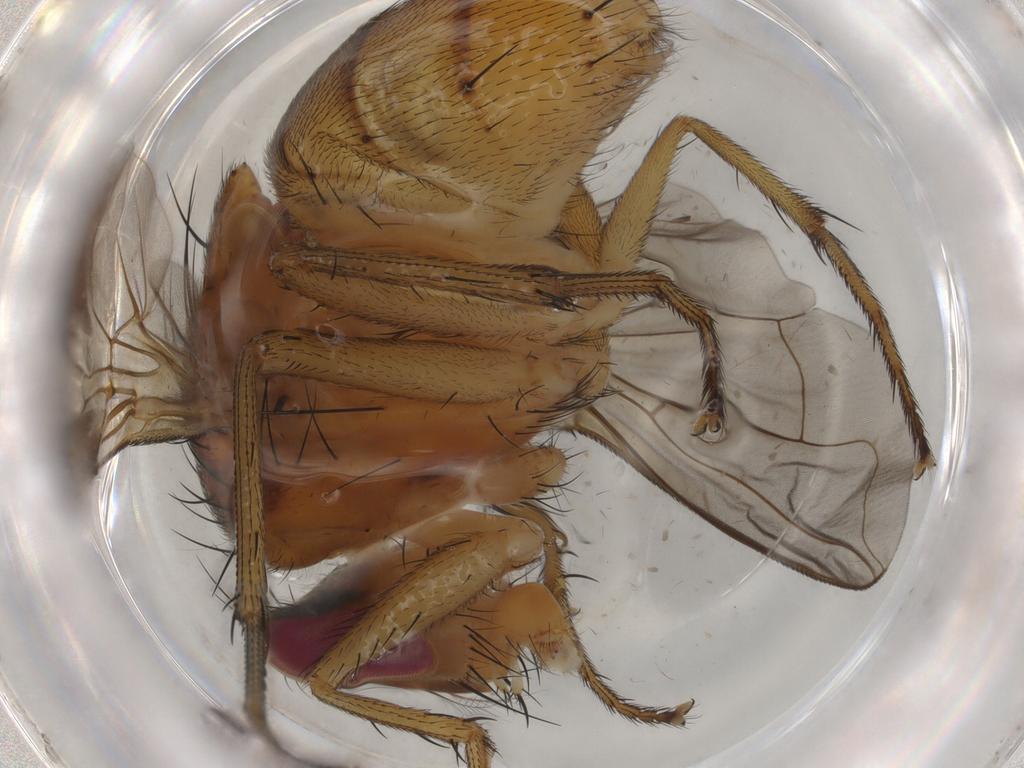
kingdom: Animalia
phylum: Arthropoda
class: Insecta
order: Diptera
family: Calliphoridae
